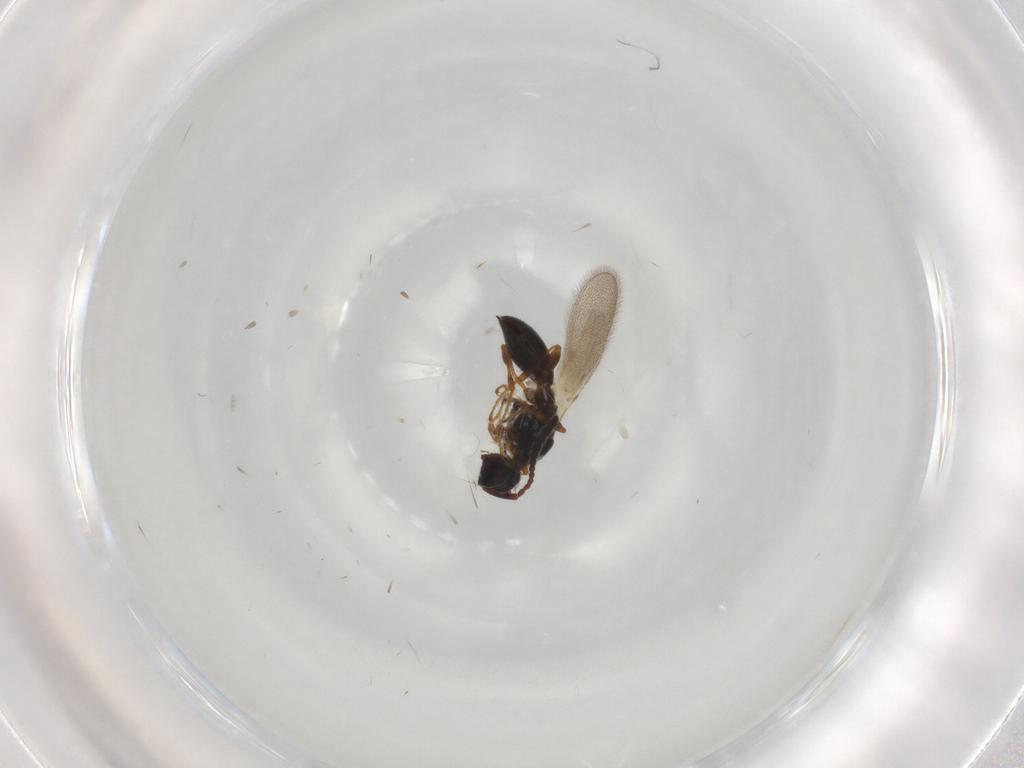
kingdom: Animalia
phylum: Arthropoda
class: Insecta
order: Hymenoptera
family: Diapriidae
